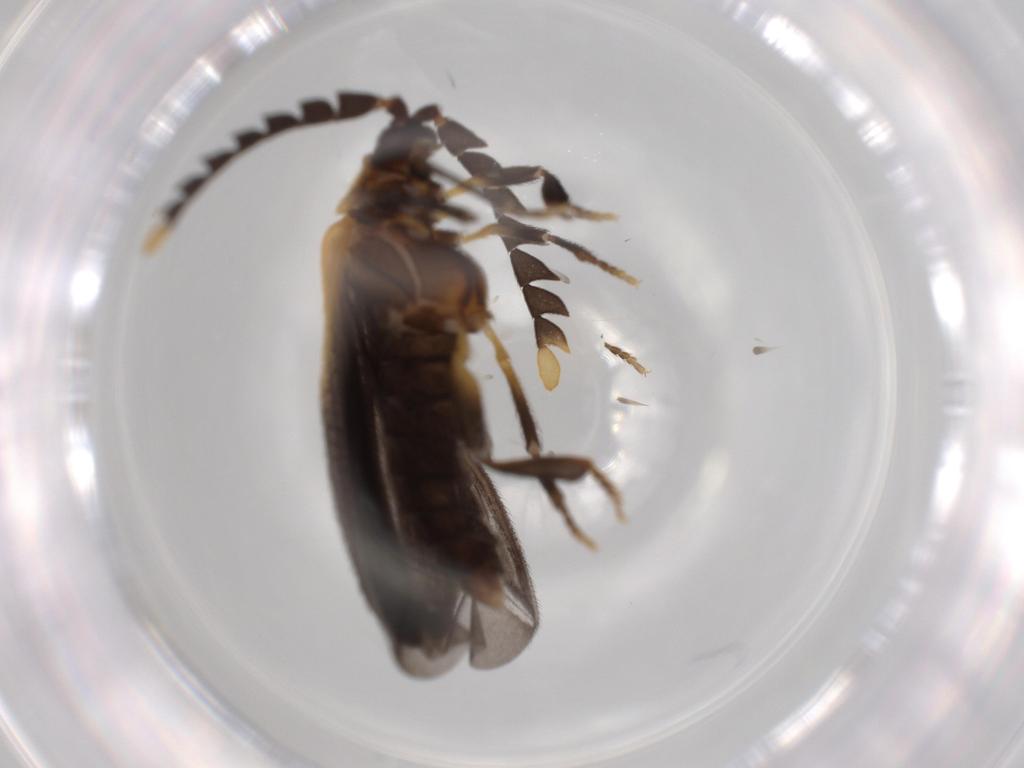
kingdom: Animalia
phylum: Arthropoda
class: Insecta
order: Coleoptera
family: Lycidae
